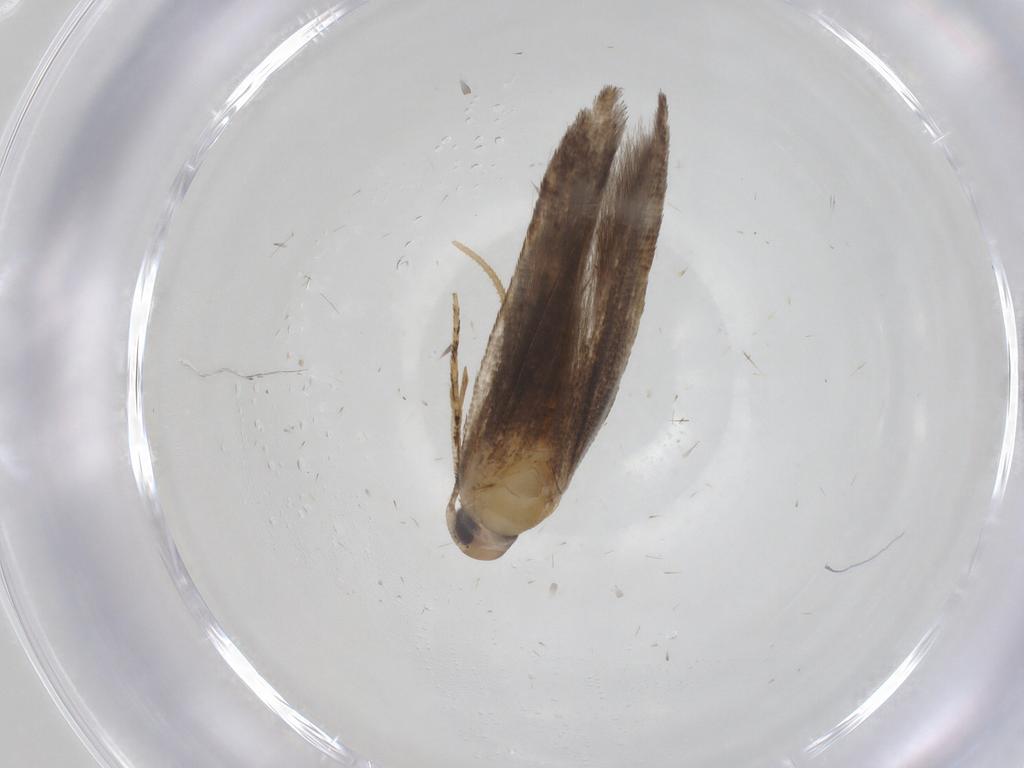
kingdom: Animalia
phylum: Arthropoda
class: Insecta
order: Lepidoptera
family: Cosmopterigidae
